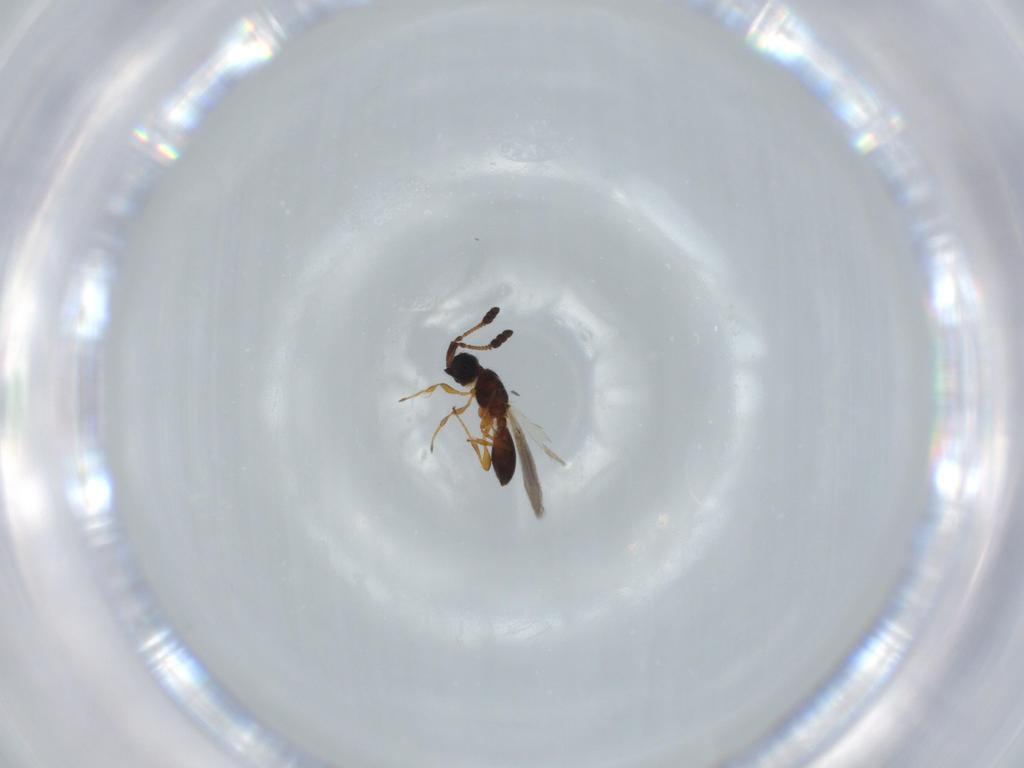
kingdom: Animalia
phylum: Arthropoda
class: Insecta
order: Hymenoptera
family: Diapriidae
